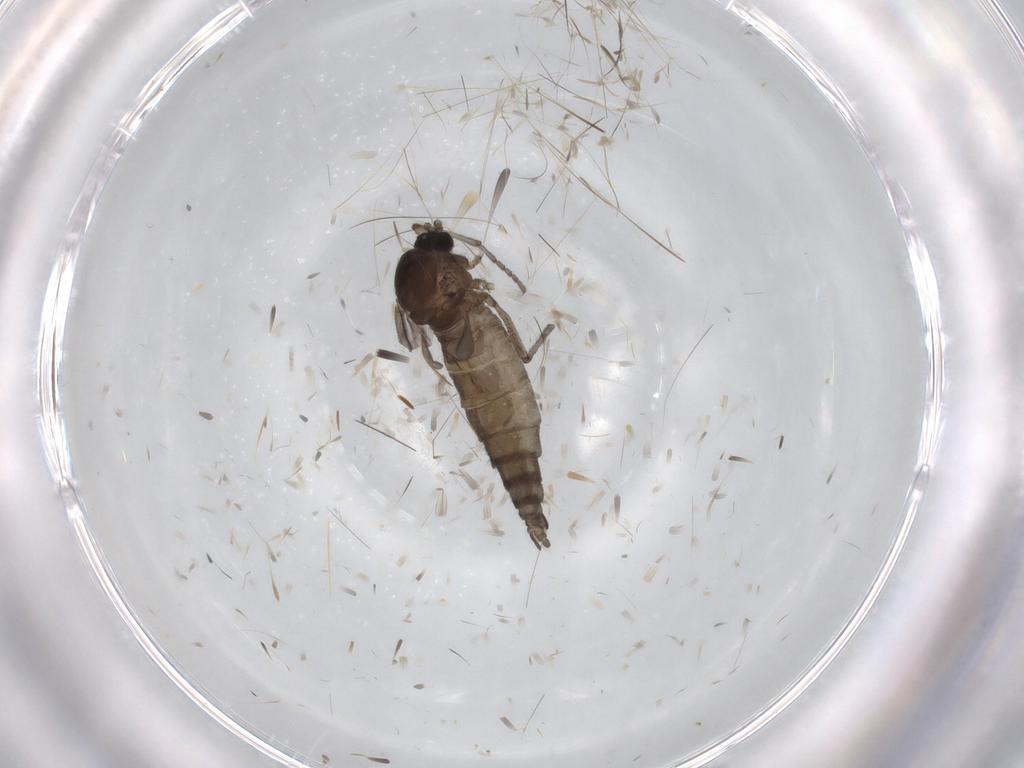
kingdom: Animalia
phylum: Arthropoda
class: Insecta
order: Diptera
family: Sciaridae
